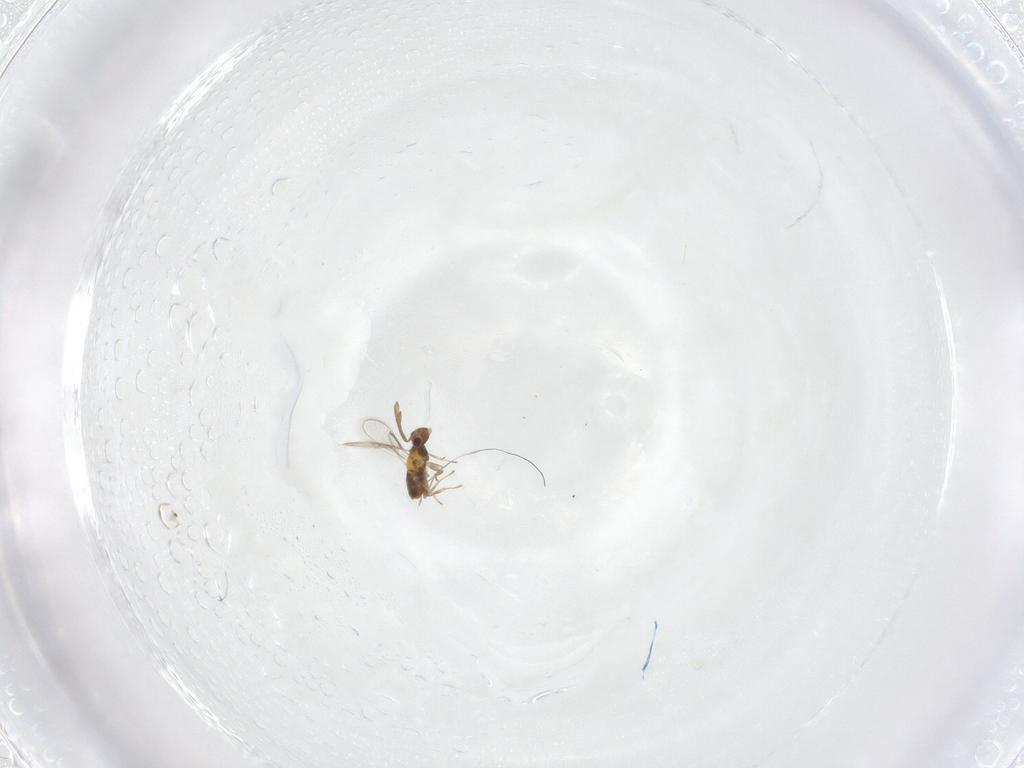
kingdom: Animalia
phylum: Arthropoda
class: Insecta
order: Hymenoptera
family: Aphelinidae
